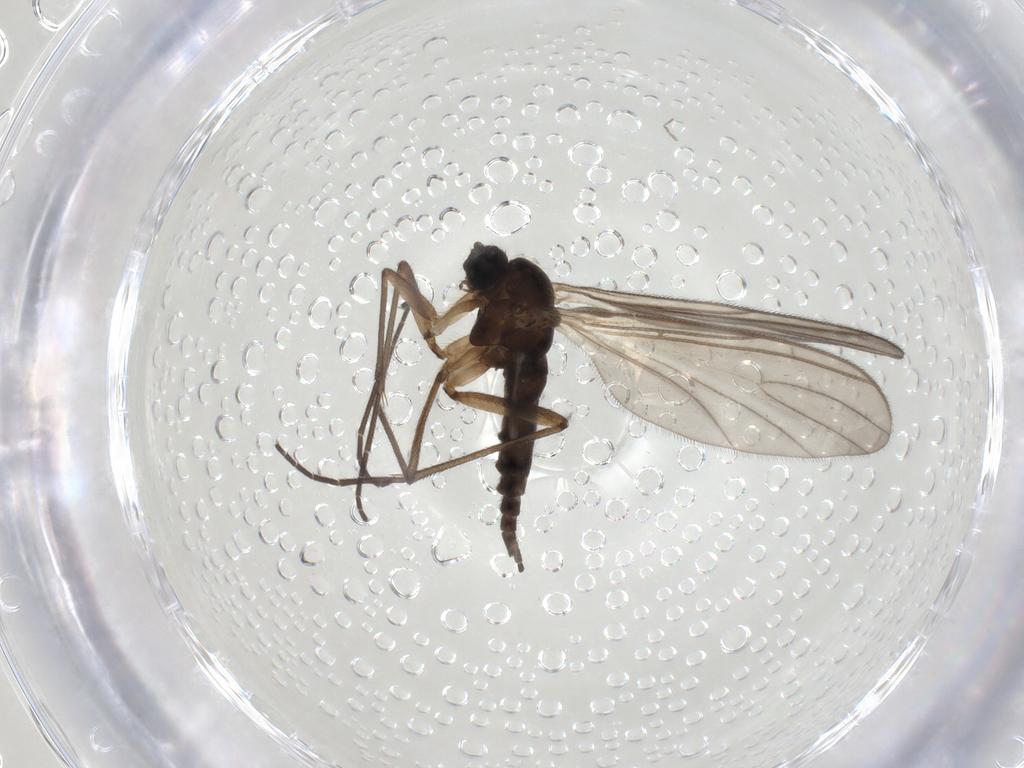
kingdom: Animalia
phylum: Arthropoda
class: Insecta
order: Diptera
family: Sciaridae
